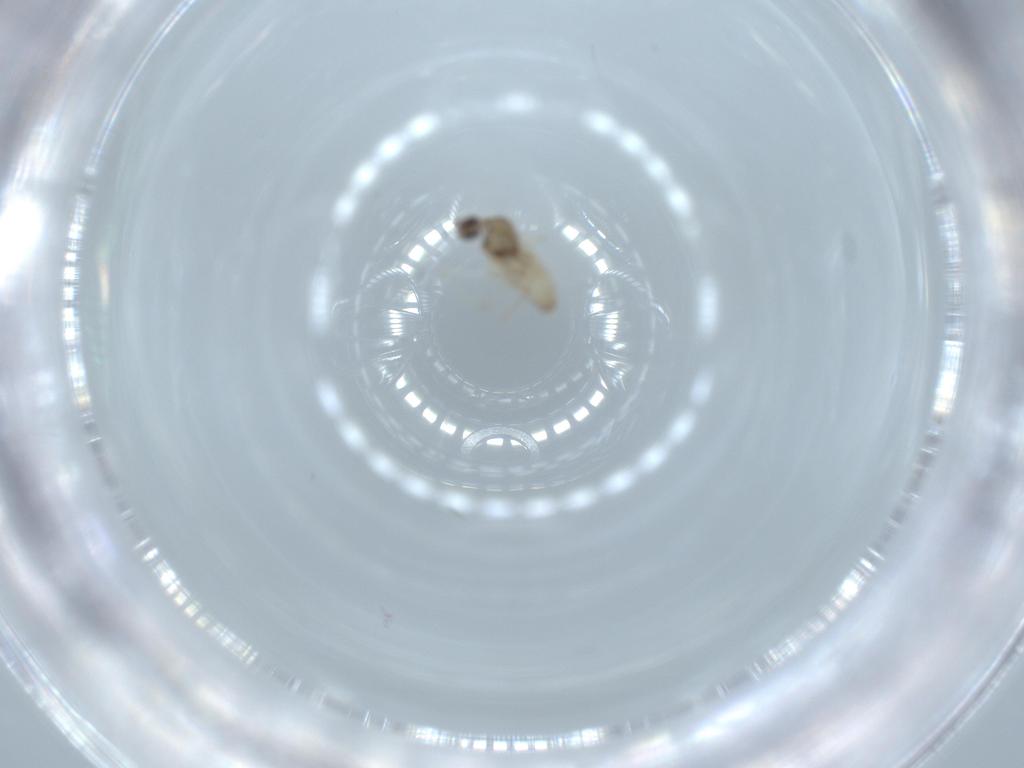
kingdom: Animalia
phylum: Arthropoda
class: Insecta
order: Diptera
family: Cecidomyiidae
